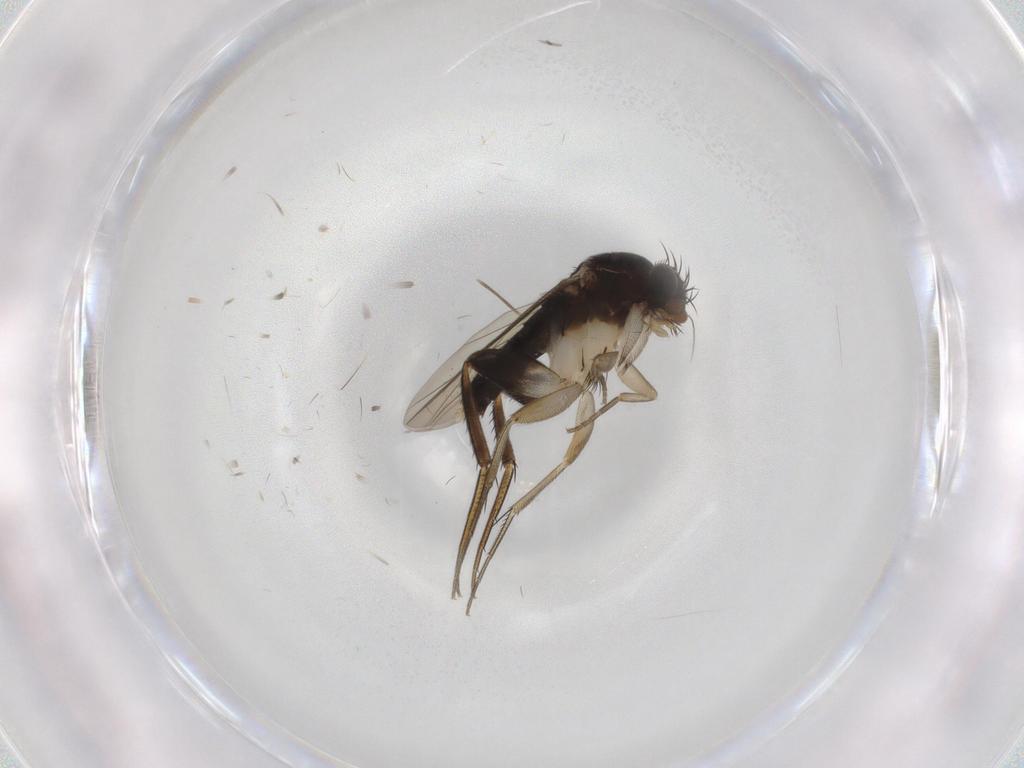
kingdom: Animalia
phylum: Arthropoda
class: Insecta
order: Diptera
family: Phoridae
